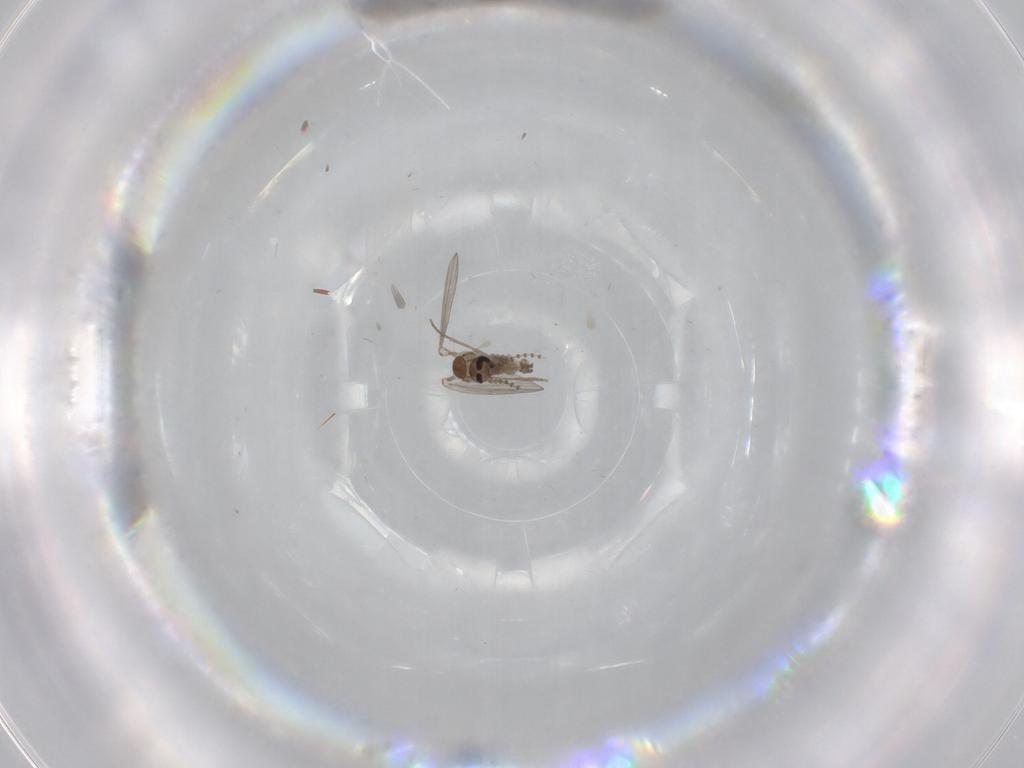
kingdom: Animalia
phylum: Arthropoda
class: Insecta
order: Diptera
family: Psychodidae
